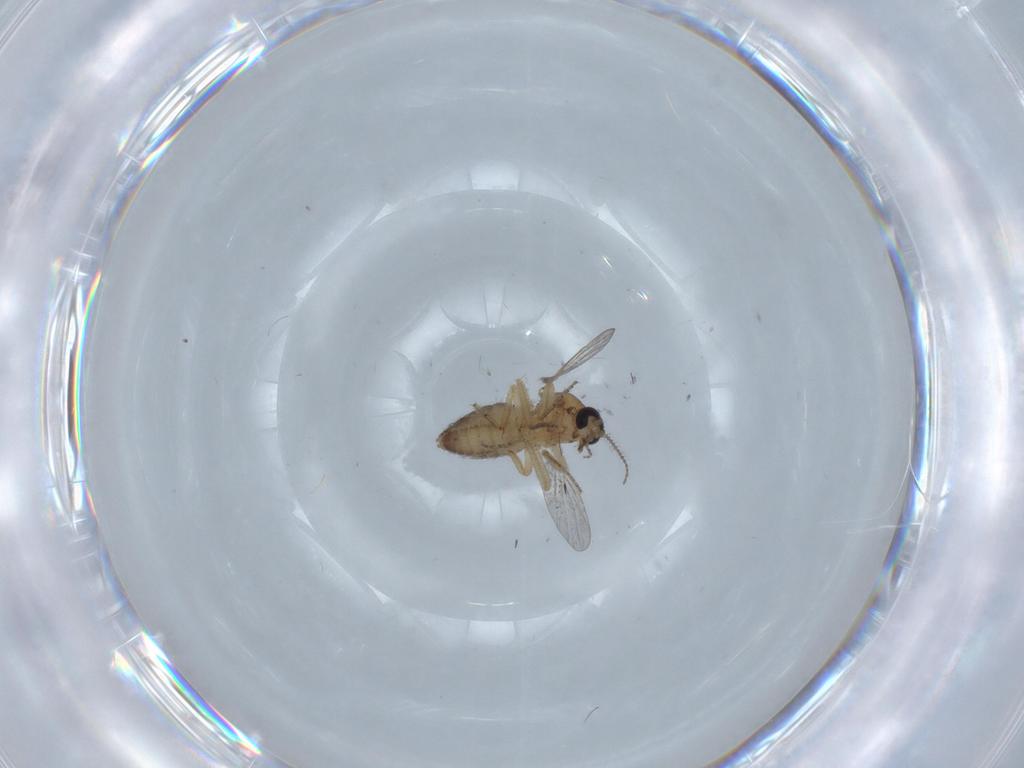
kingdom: Animalia
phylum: Arthropoda
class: Insecta
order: Diptera
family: Ceratopogonidae
